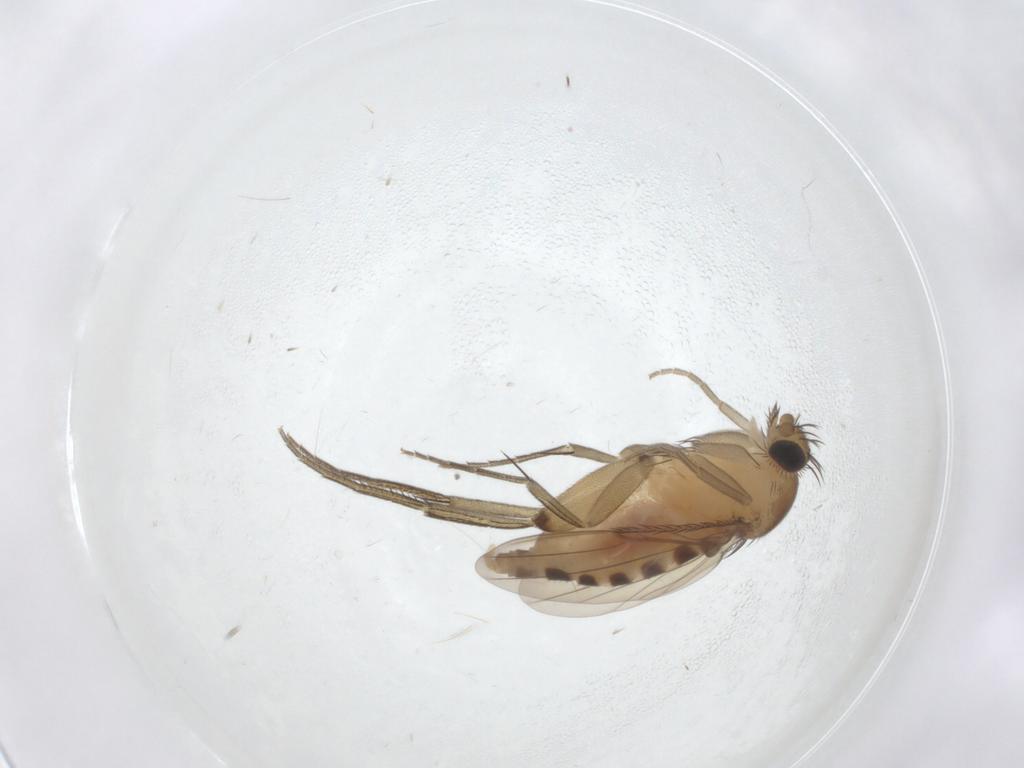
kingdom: Animalia
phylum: Arthropoda
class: Insecta
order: Diptera
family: Phoridae
